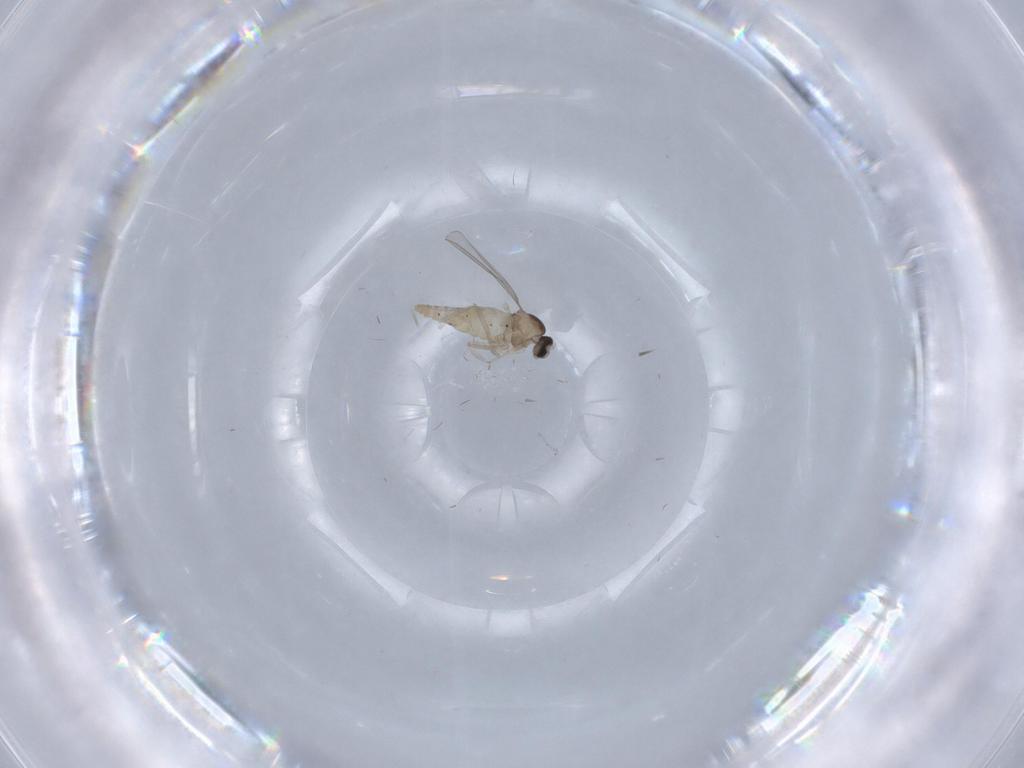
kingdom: Animalia
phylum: Arthropoda
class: Insecta
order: Diptera
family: Cecidomyiidae
